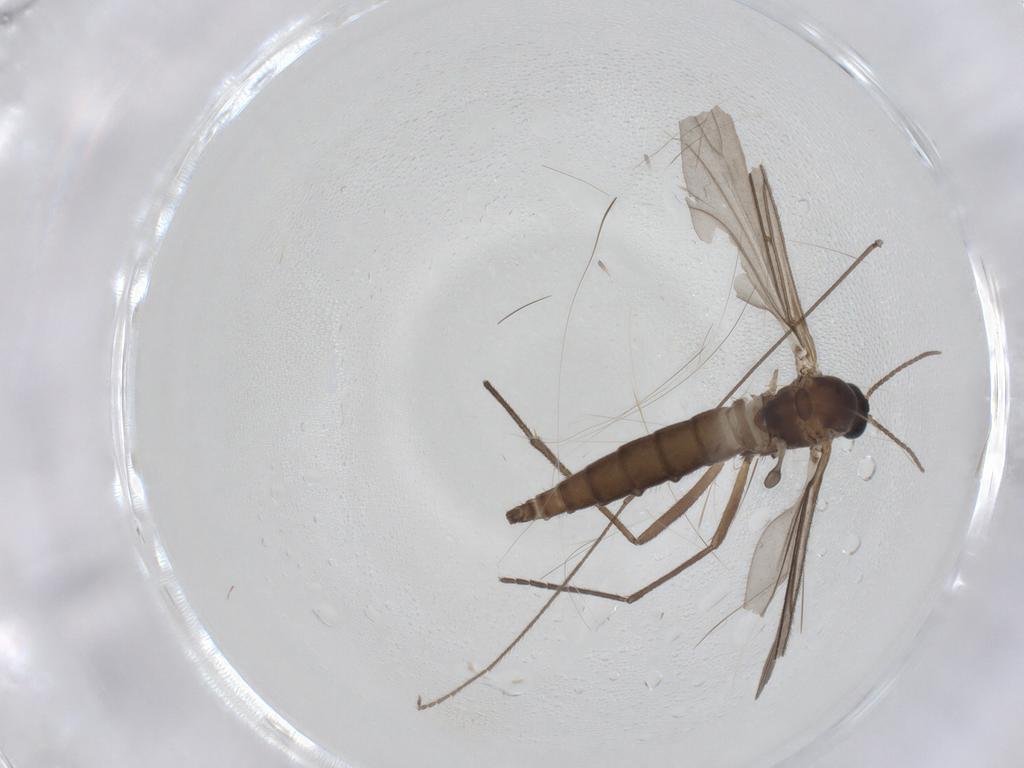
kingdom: Animalia
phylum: Arthropoda
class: Insecta
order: Diptera
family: Sciaridae
